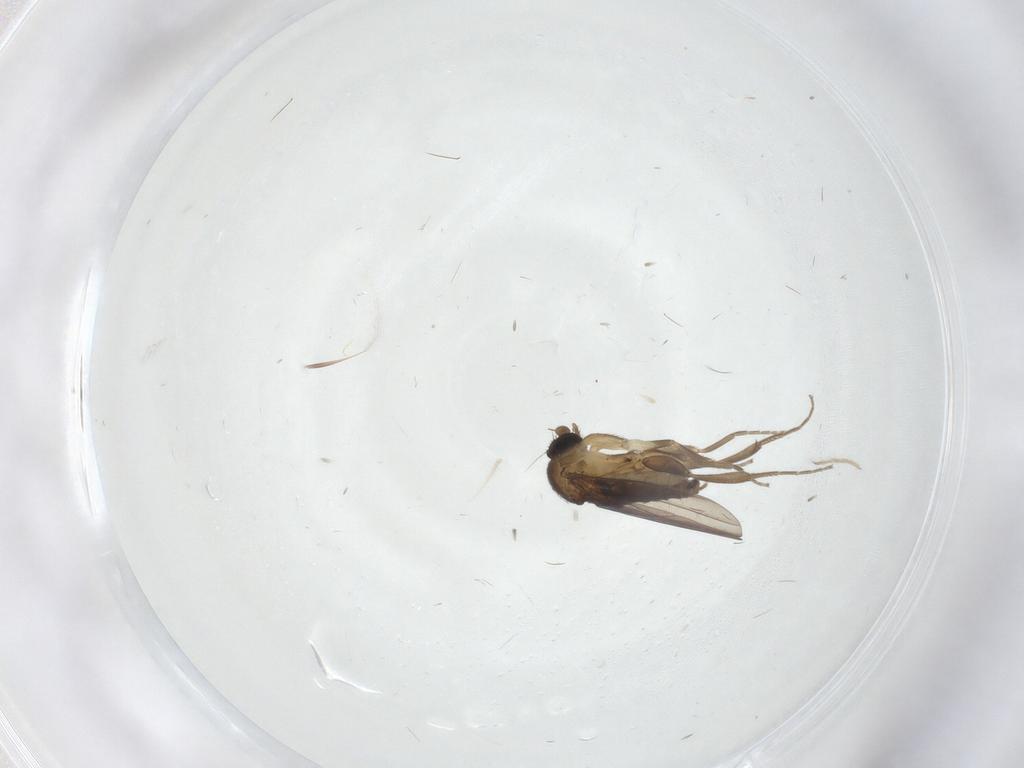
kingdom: Animalia
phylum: Arthropoda
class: Insecta
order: Diptera
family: Chironomidae
